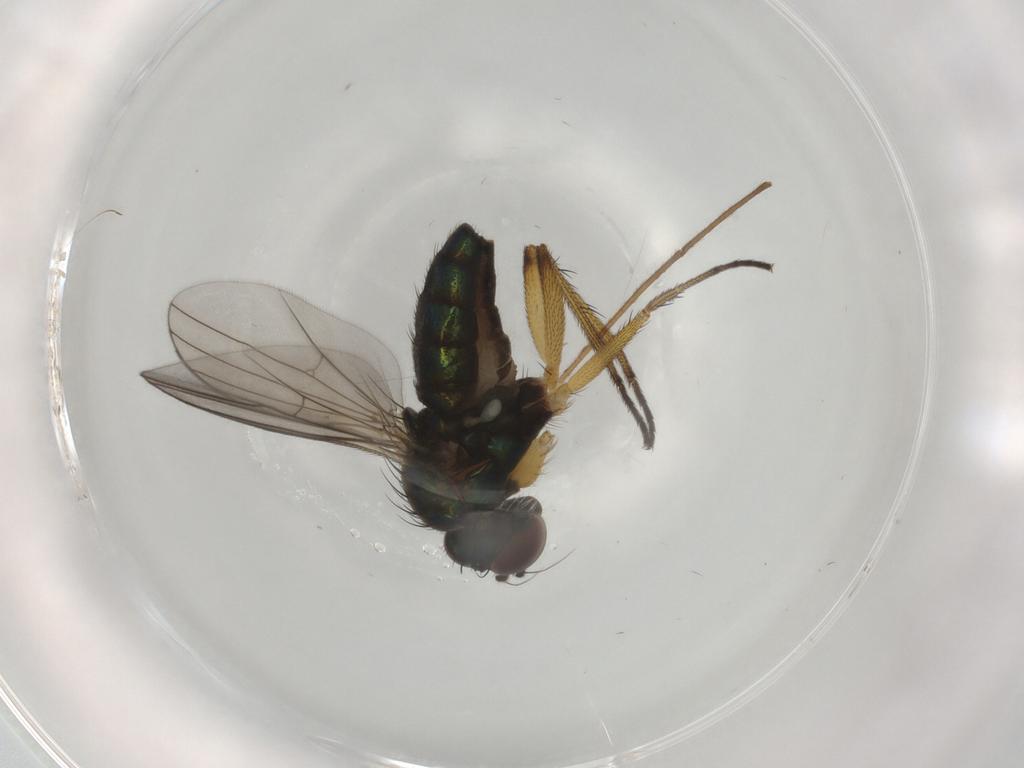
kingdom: Animalia
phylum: Arthropoda
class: Insecta
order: Diptera
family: Dolichopodidae
